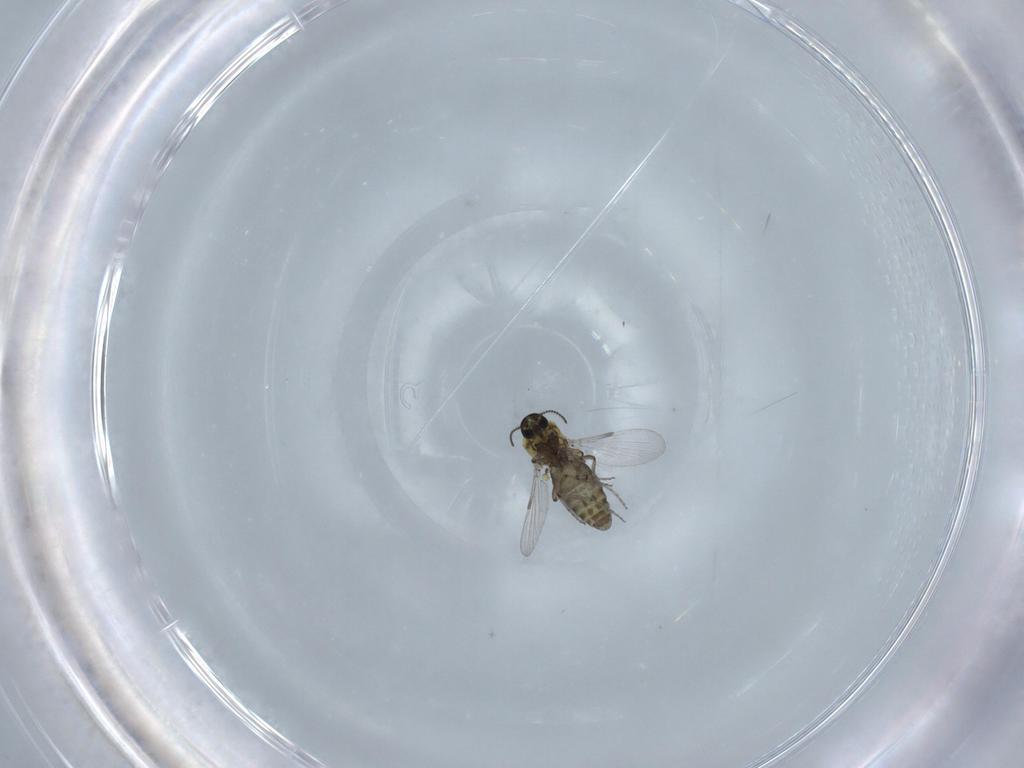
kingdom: Animalia
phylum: Arthropoda
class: Insecta
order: Diptera
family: Ceratopogonidae
